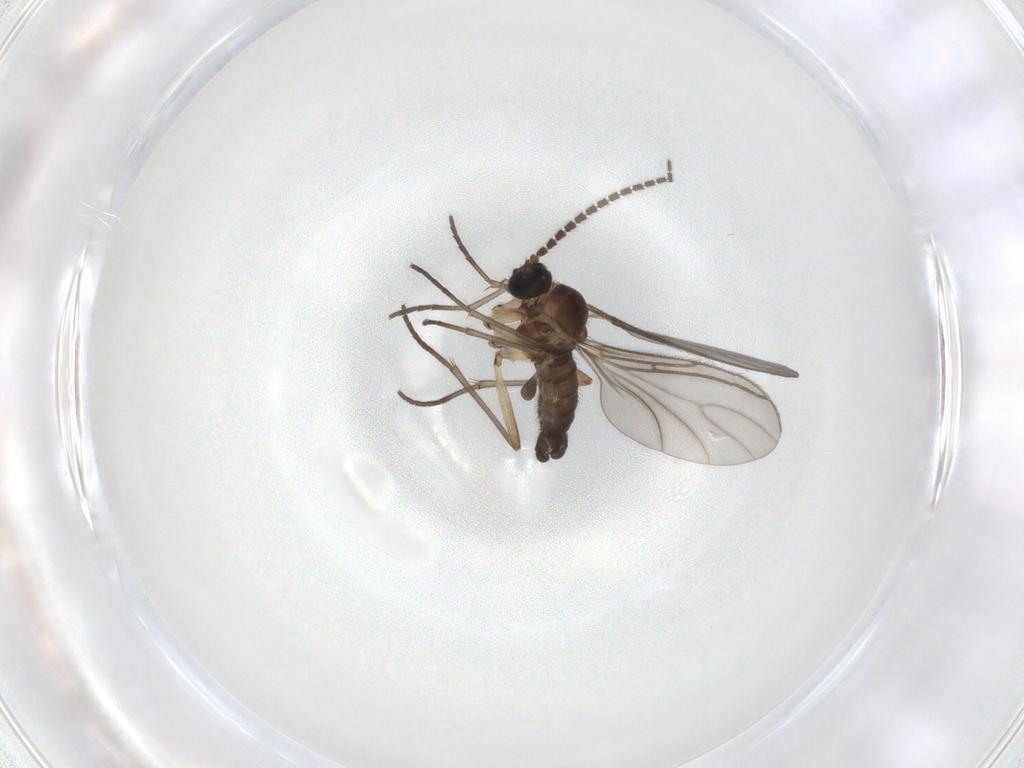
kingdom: Animalia
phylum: Arthropoda
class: Insecta
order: Diptera
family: Sciaridae
